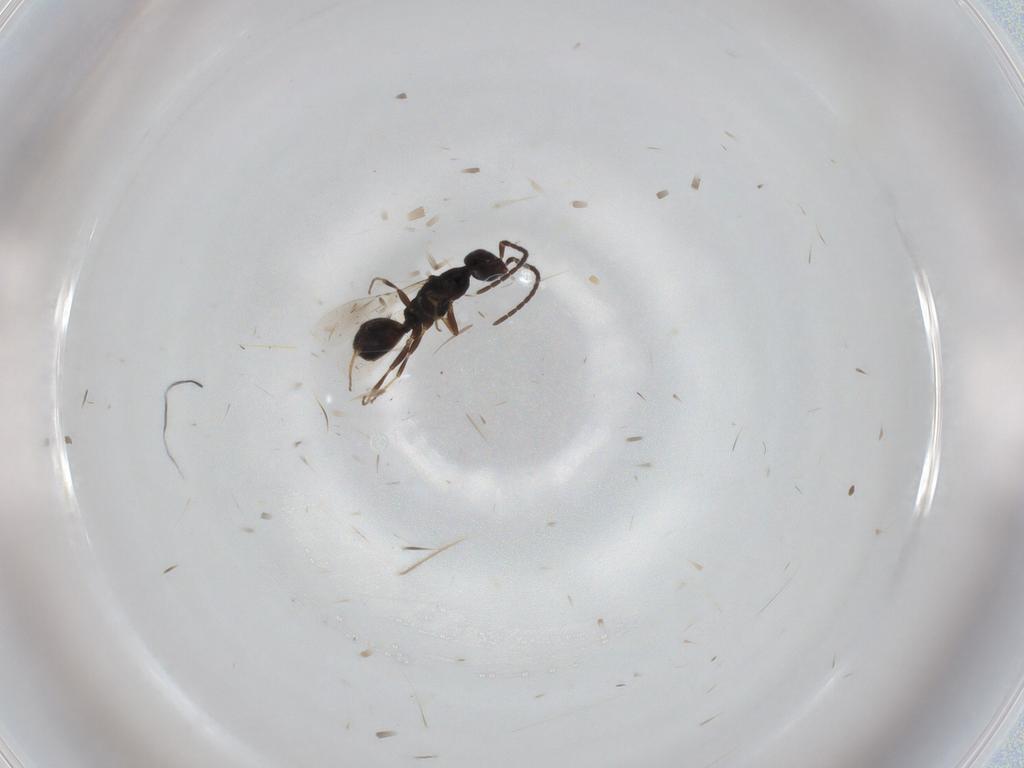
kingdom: Animalia
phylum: Arthropoda
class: Insecta
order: Hymenoptera
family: Bethylidae
